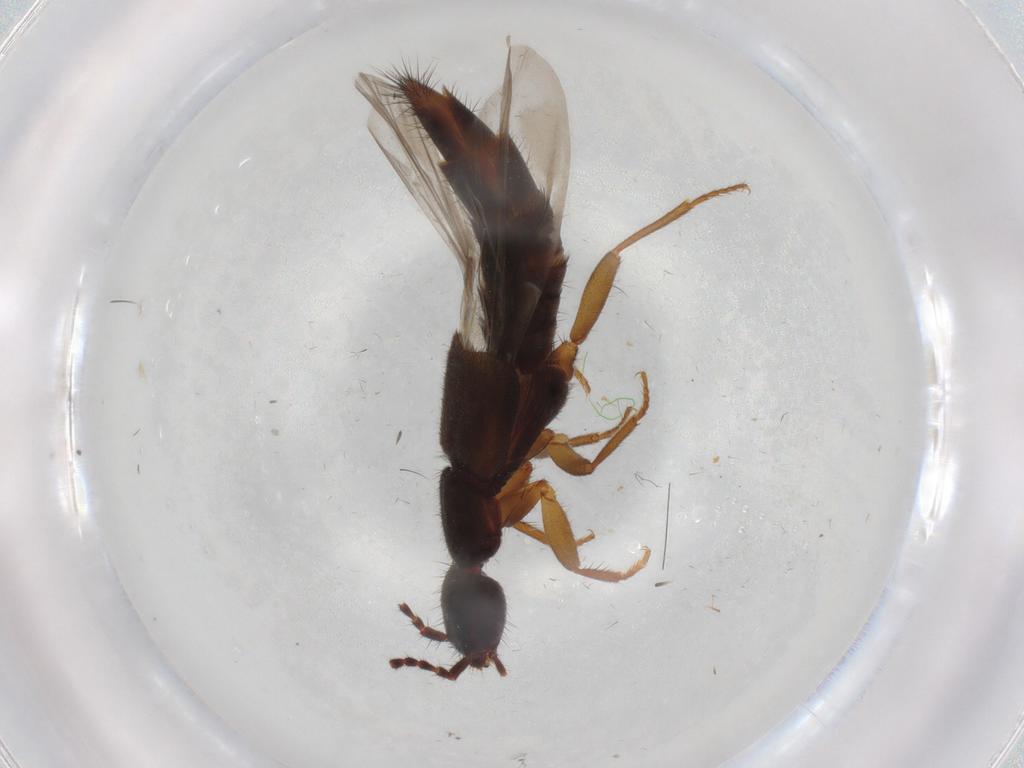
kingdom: Animalia
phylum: Arthropoda
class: Insecta
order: Coleoptera
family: Staphylinidae
